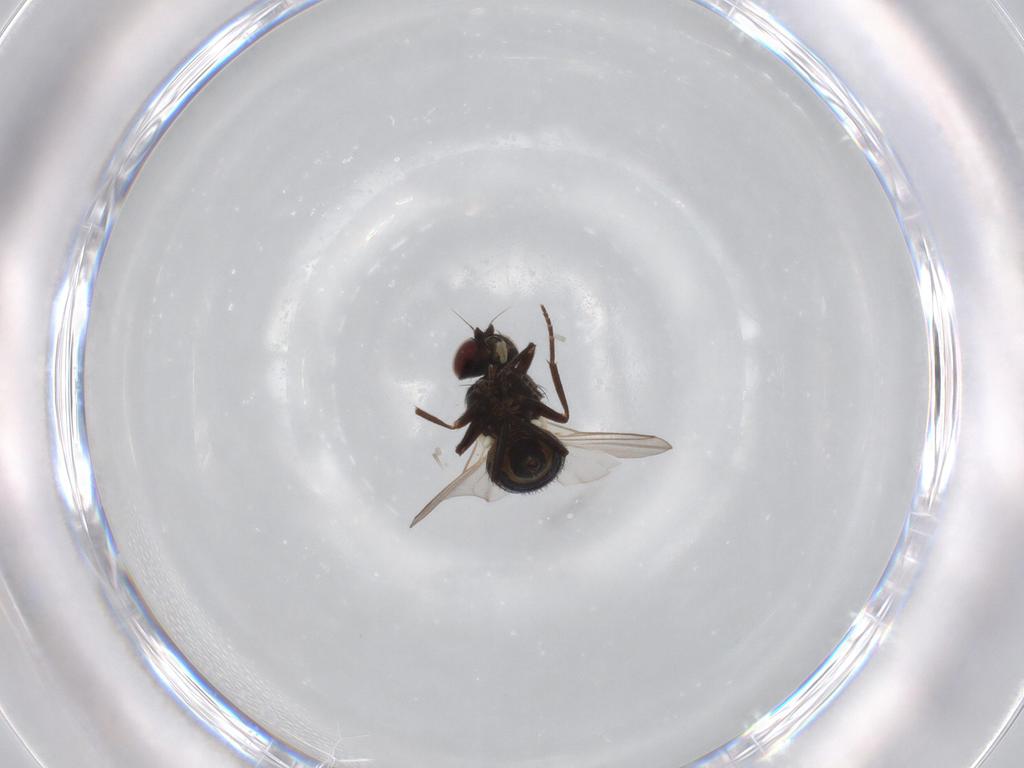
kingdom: Animalia
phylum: Arthropoda
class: Insecta
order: Diptera
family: Agromyzidae
